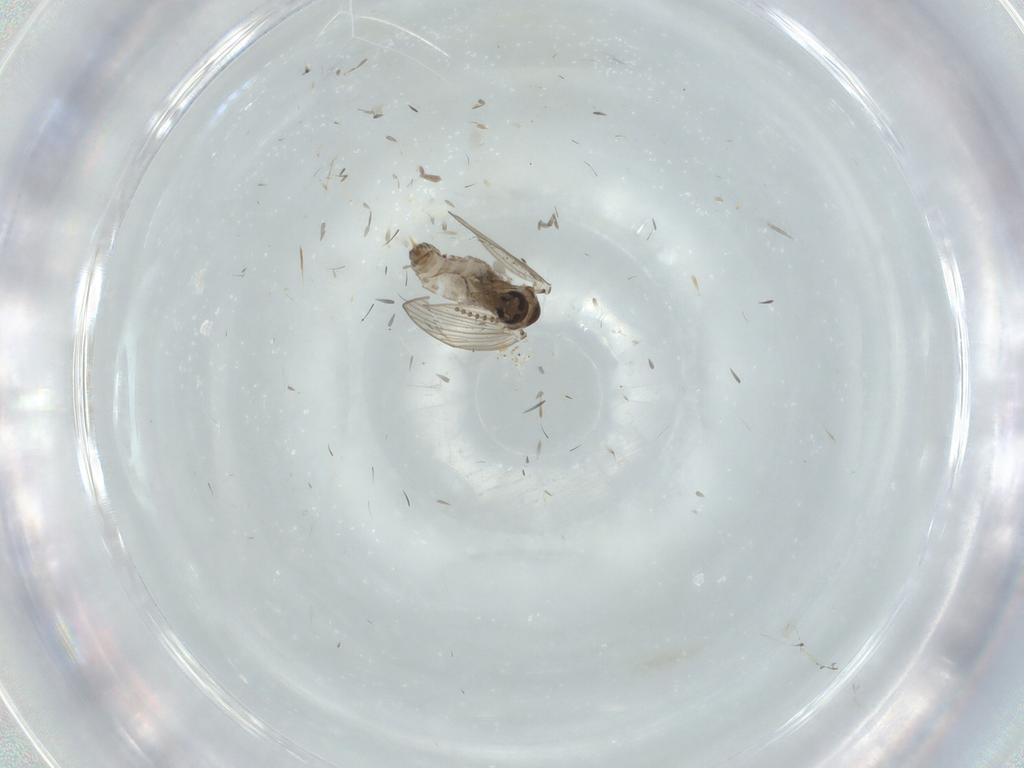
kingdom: Animalia
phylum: Arthropoda
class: Insecta
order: Diptera
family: Psychodidae
